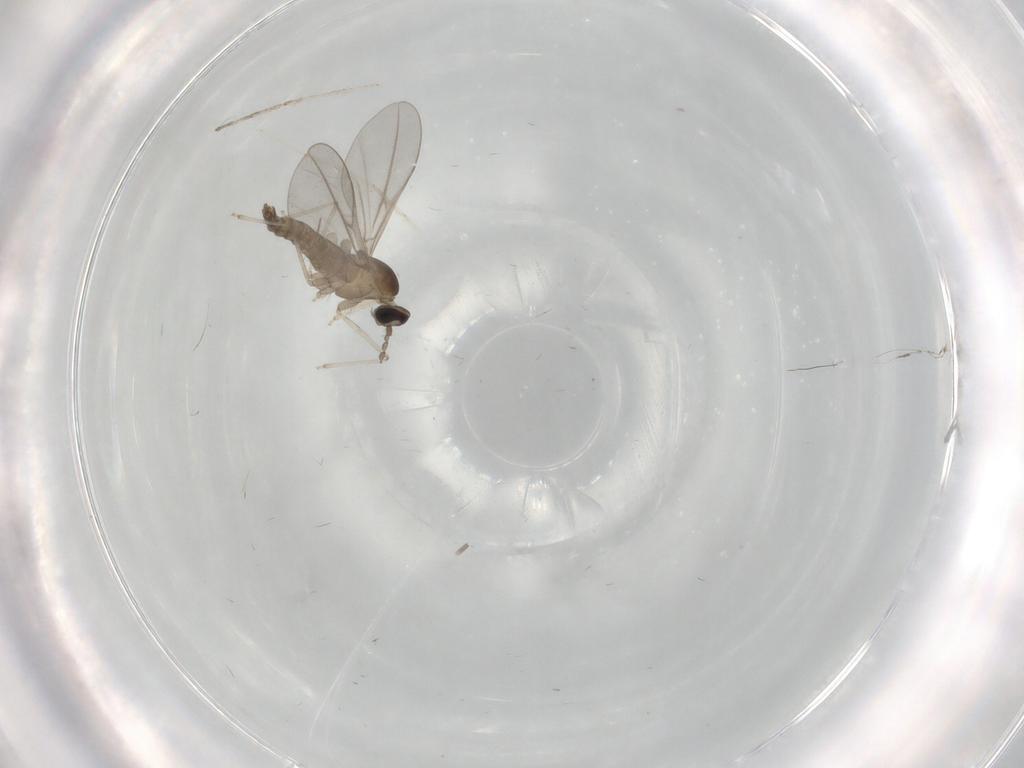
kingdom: Animalia
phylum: Arthropoda
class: Insecta
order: Diptera
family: Cecidomyiidae
